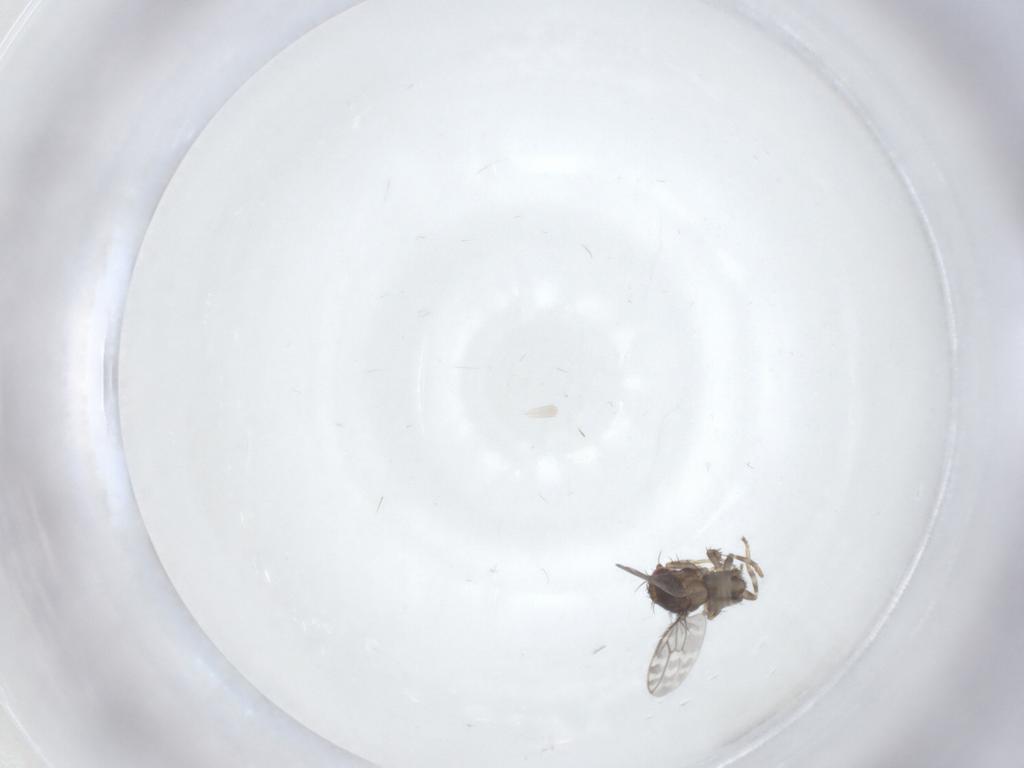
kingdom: Animalia
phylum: Arthropoda
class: Insecta
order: Diptera
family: Sphaeroceridae
